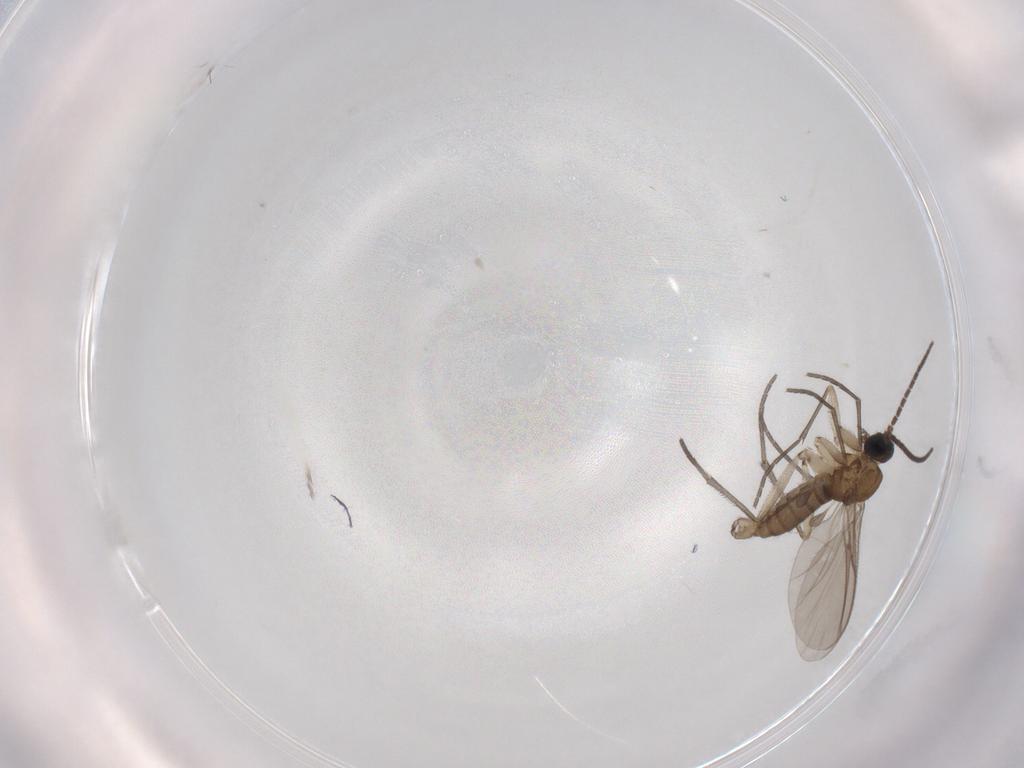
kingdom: Animalia
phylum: Arthropoda
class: Insecta
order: Diptera
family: Sciaridae
